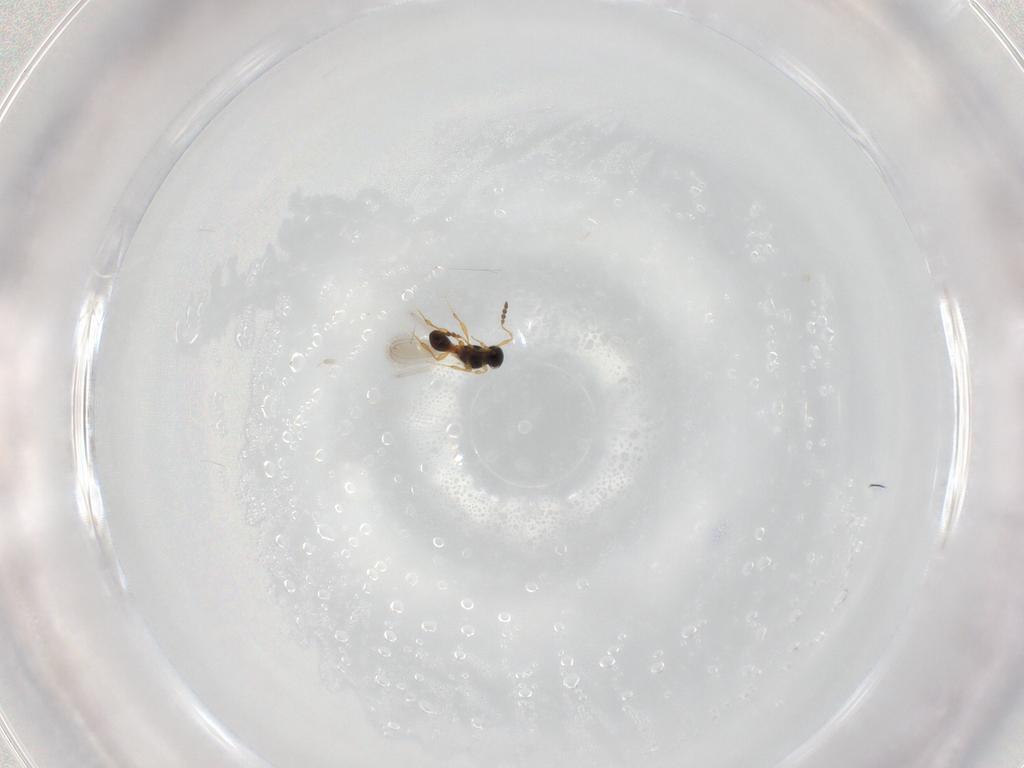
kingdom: Animalia
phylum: Arthropoda
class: Insecta
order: Hymenoptera
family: Platygastridae
